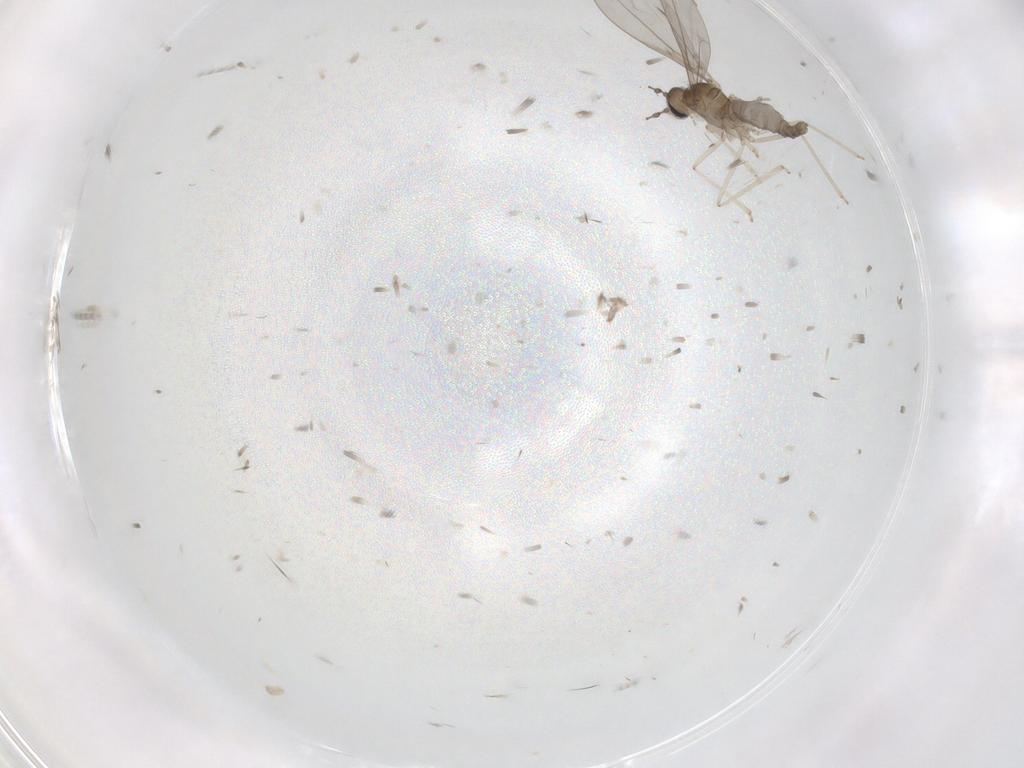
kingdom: Animalia
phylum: Arthropoda
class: Insecta
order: Diptera
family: Cecidomyiidae
